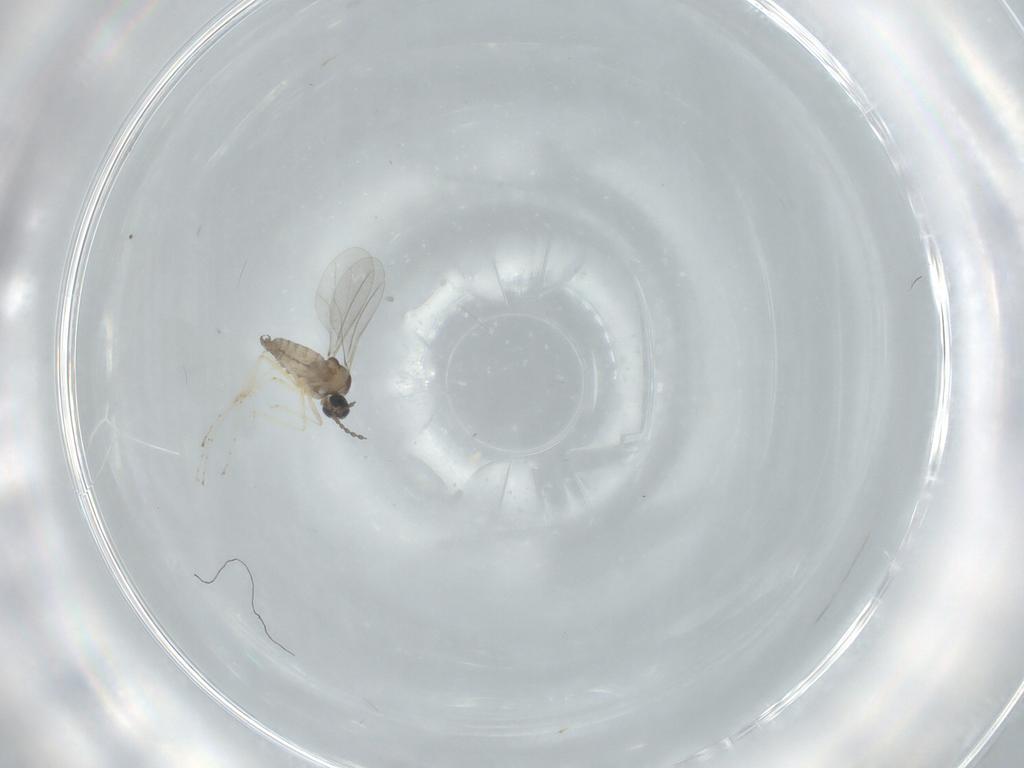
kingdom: Animalia
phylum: Arthropoda
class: Insecta
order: Diptera
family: Cecidomyiidae
